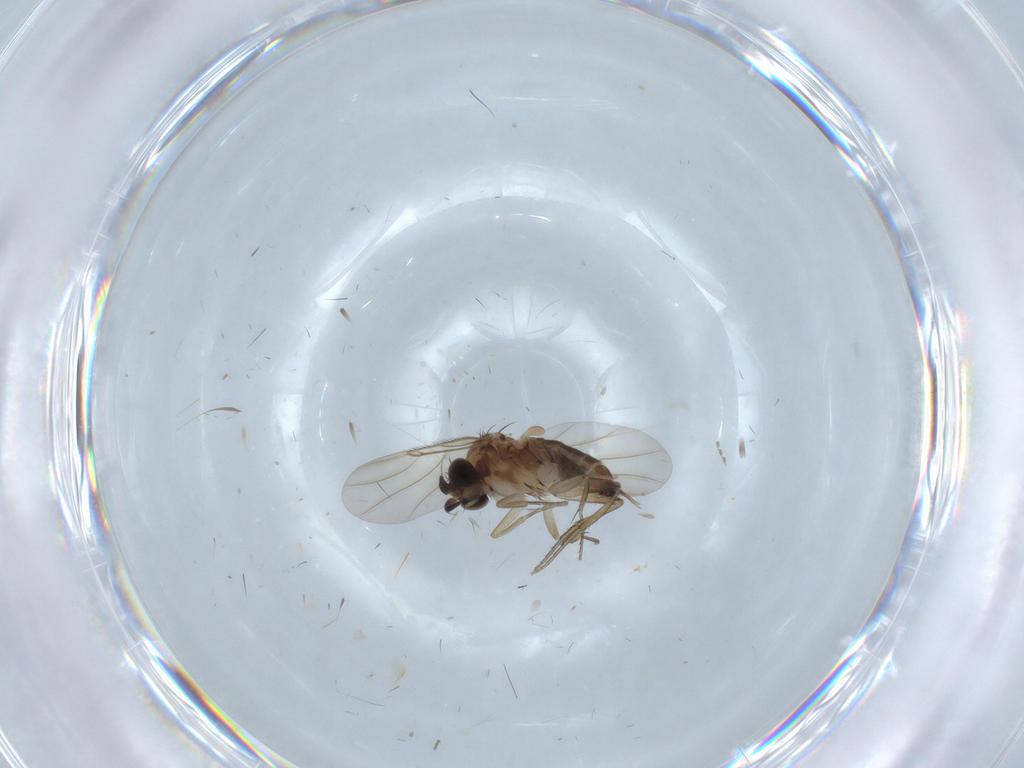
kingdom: Animalia
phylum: Arthropoda
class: Insecta
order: Diptera
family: Phoridae
